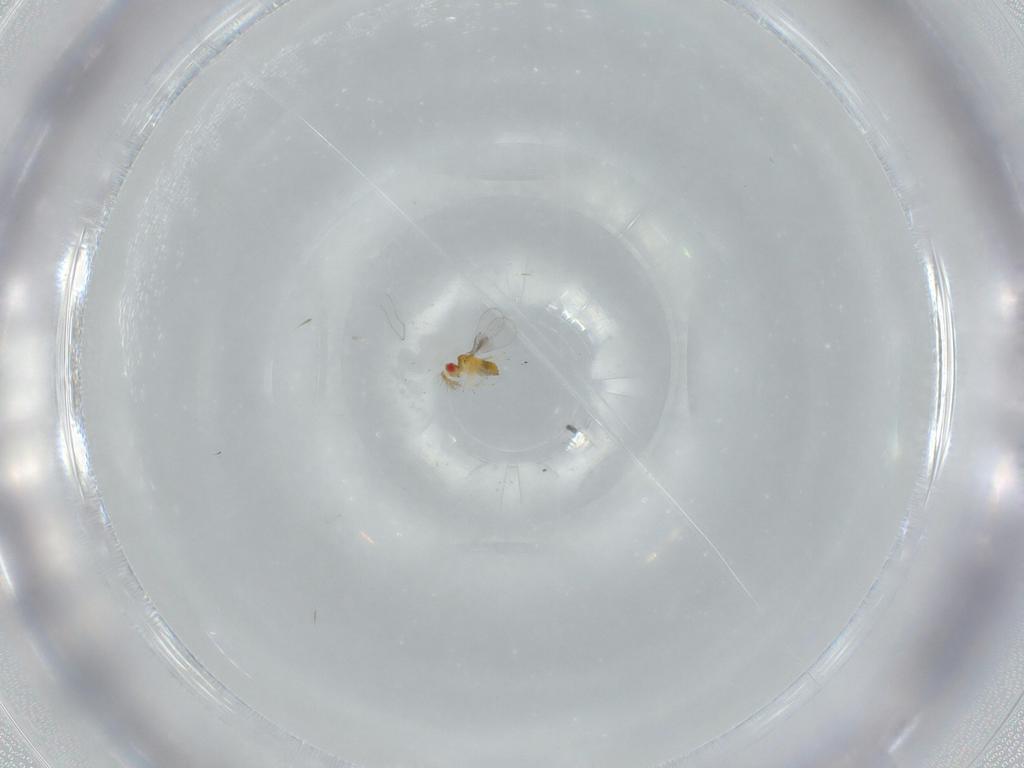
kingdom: Animalia
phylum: Arthropoda
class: Insecta
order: Hymenoptera
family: Trichogrammatidae
